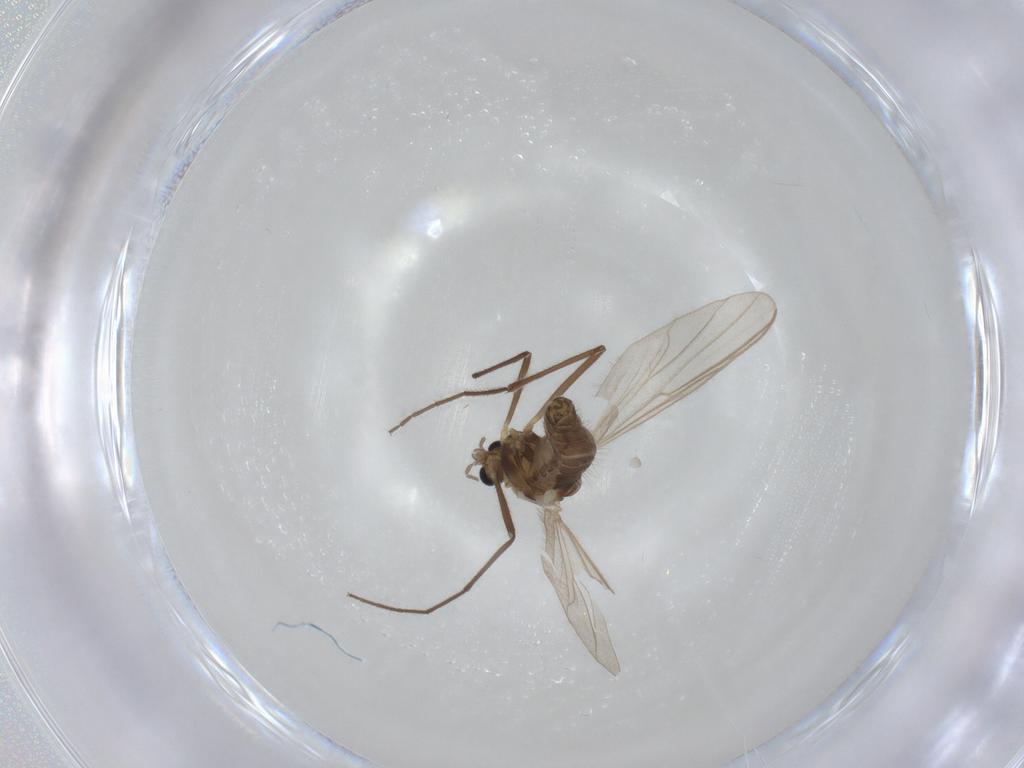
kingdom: Animalia
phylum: Arthropoda
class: Insecta
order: Diptera
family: Chironomidae
